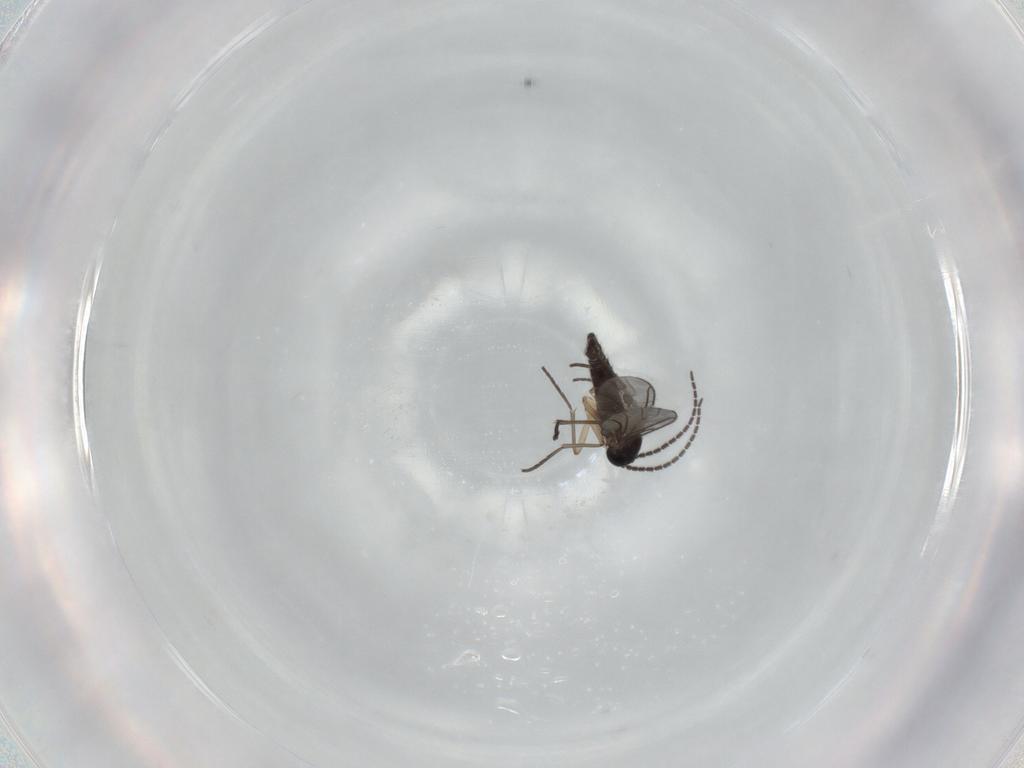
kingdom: Animalia
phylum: Arthropoda
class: Insecta
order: Diptera
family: Sciaridae
